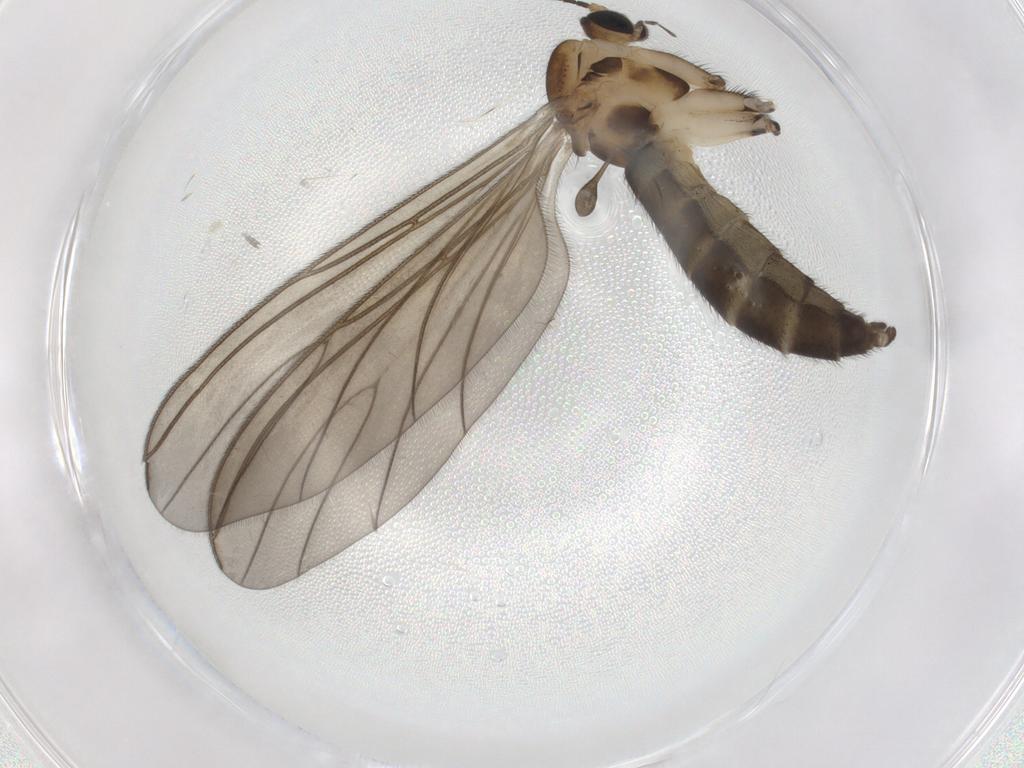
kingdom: Animalia
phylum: Arthropoda
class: Insecta
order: Diptera
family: Sciaridae
